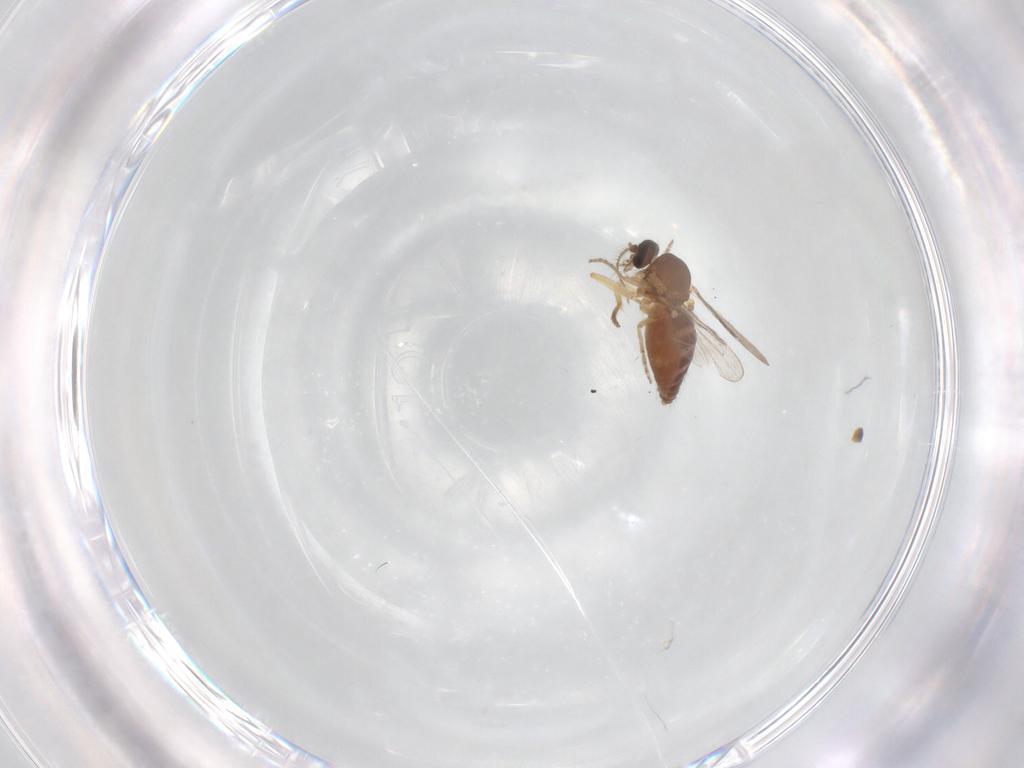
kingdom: Animalia
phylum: Arthropoda
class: Insecta
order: Diptera
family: Ceratopogonidae
